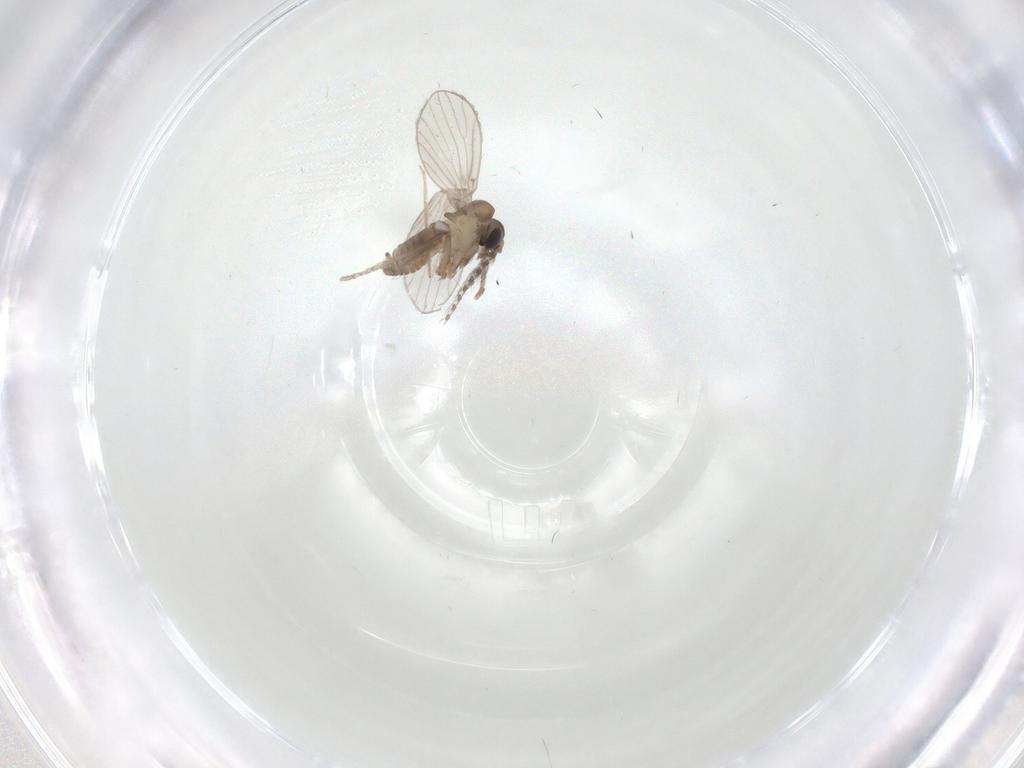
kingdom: Animalia
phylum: Arthropoda
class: Insecta
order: Diptera
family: Psychodidae
